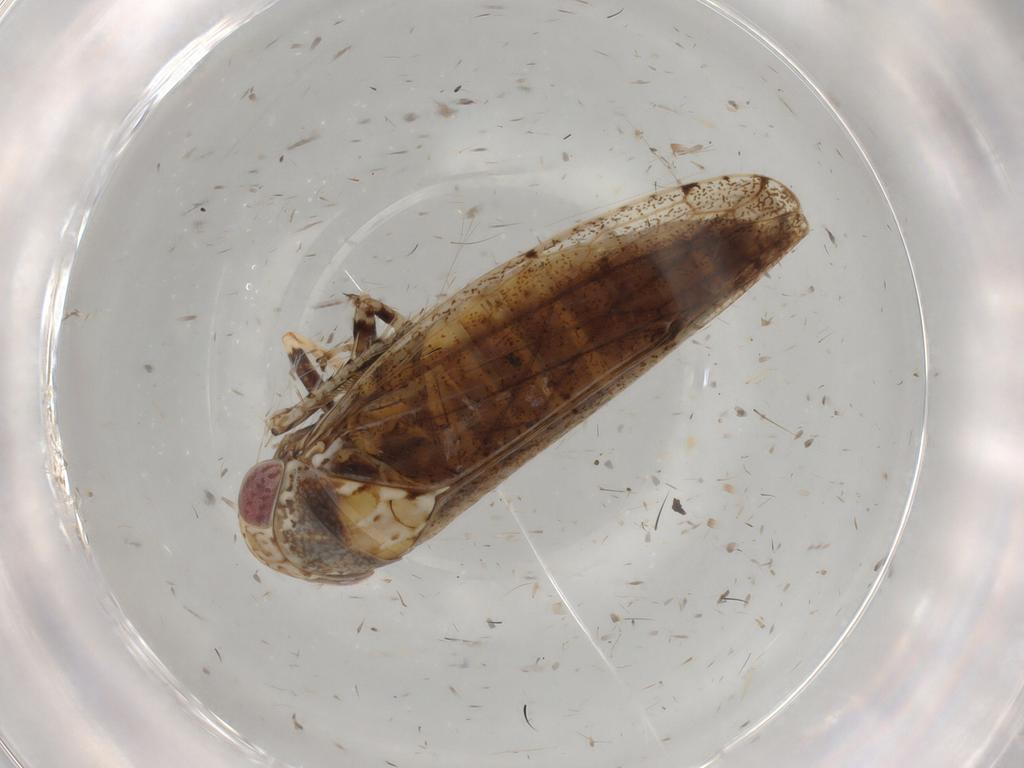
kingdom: Animalia
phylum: Arthropoda
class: Insecta
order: Hemiptera
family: Cicadellidae
